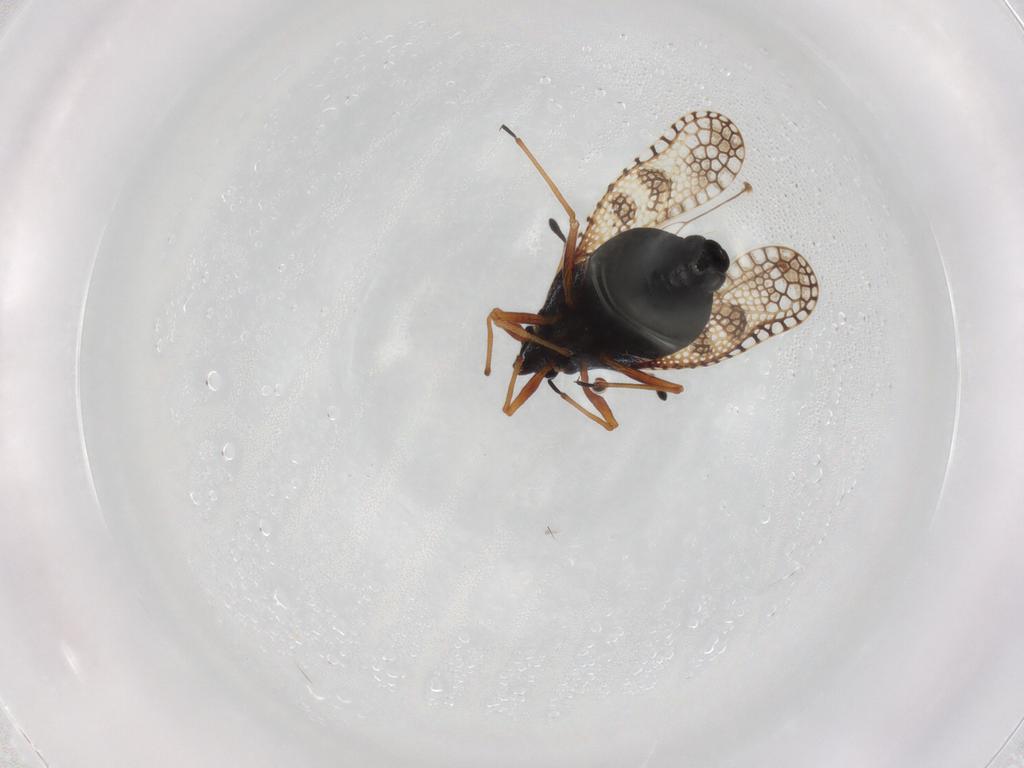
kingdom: Animalia
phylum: Arthropoda
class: Insecta
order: Hemiptera
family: Tingidae
